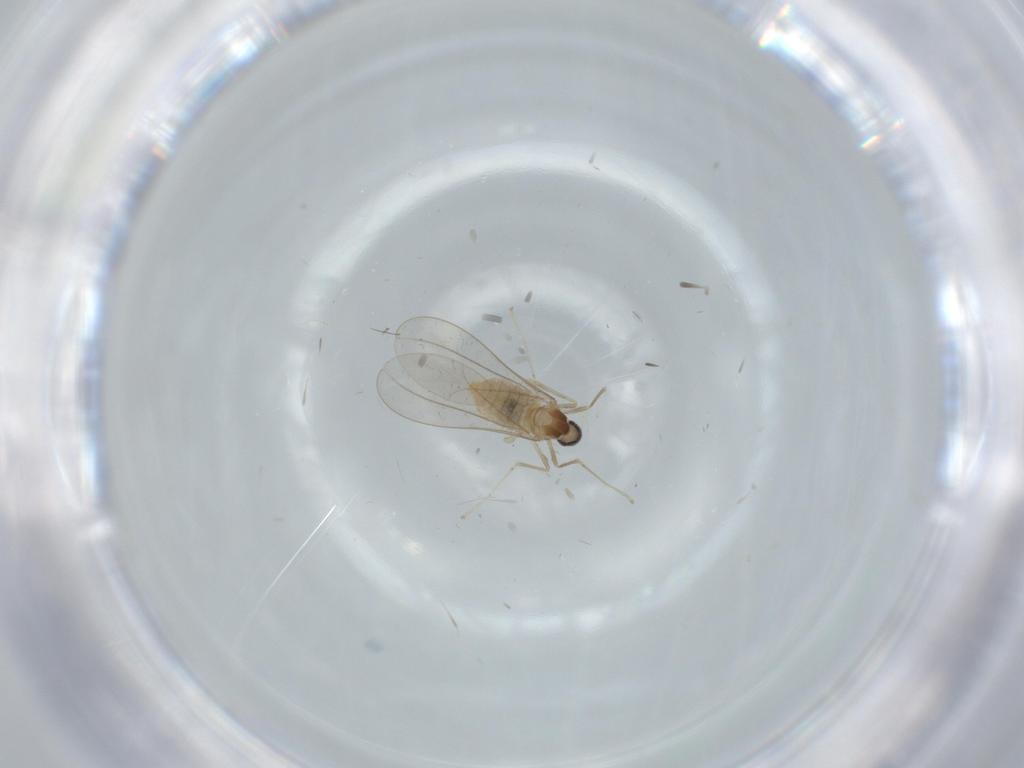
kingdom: Animalia
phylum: Arthropoda
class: Insecta
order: Diptera
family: Cecidomyiidae
